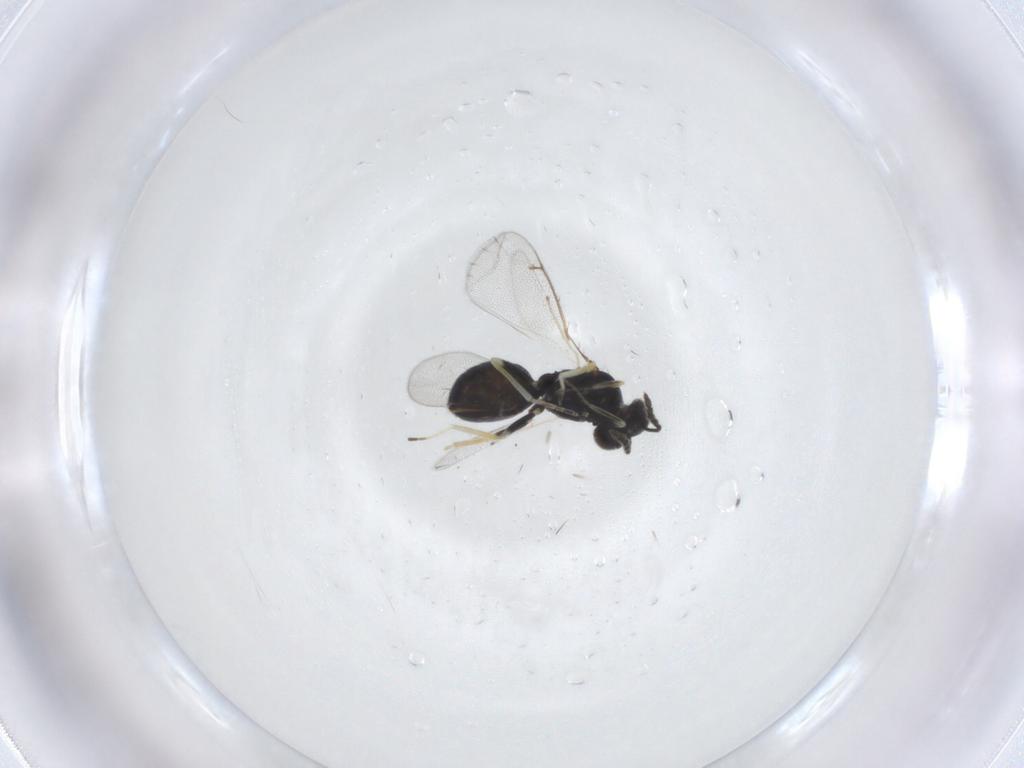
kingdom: Animalia
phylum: Arthropoda
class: Insecta
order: Hymenoptera
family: Eulophidae
